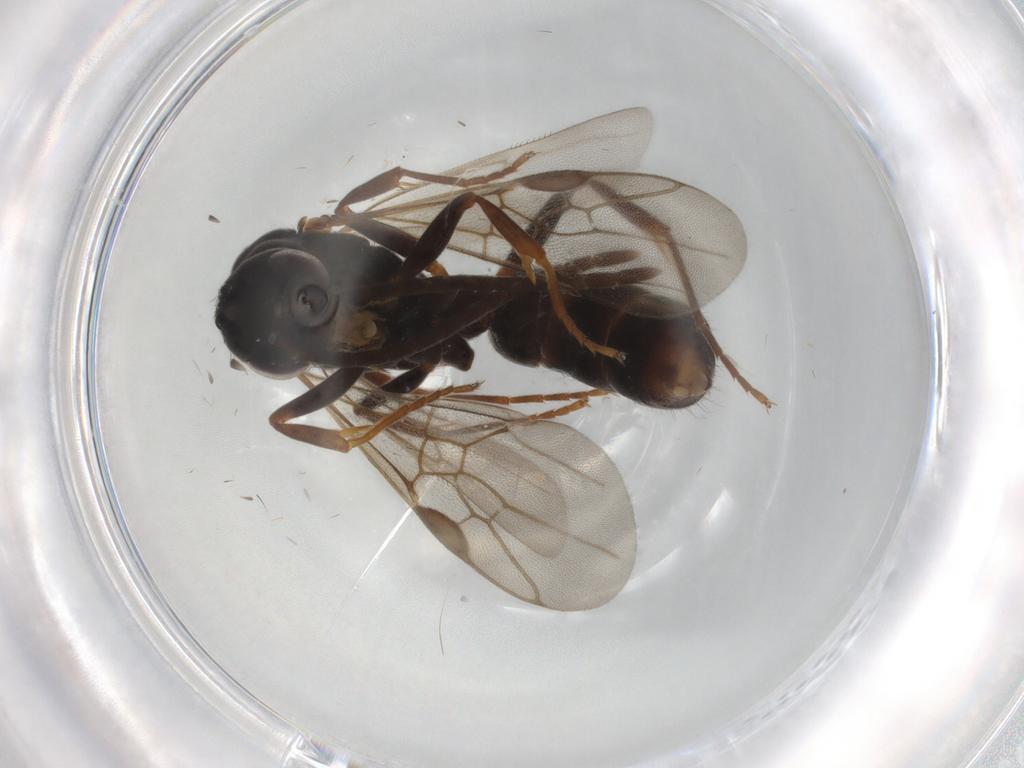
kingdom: Animalia
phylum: Arthropoda
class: Insecta
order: Hymenoptera
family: Formicidae
